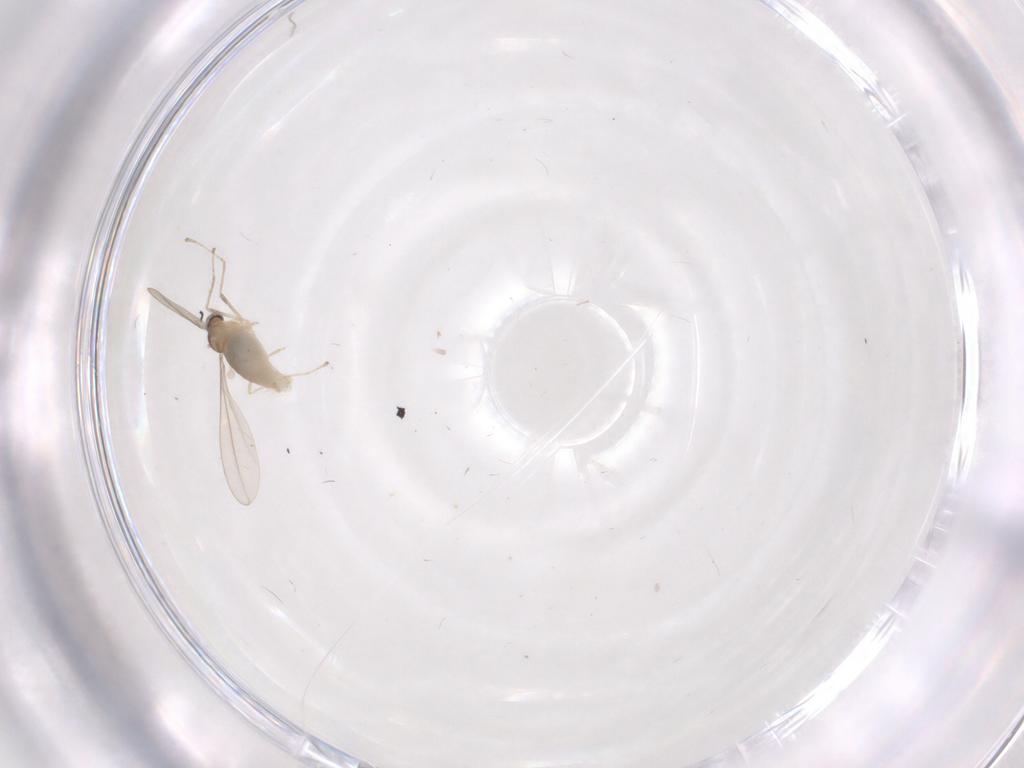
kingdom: Animalia
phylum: Arthropoda
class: Insecta
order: Diptera
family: Cecidomyiidae
